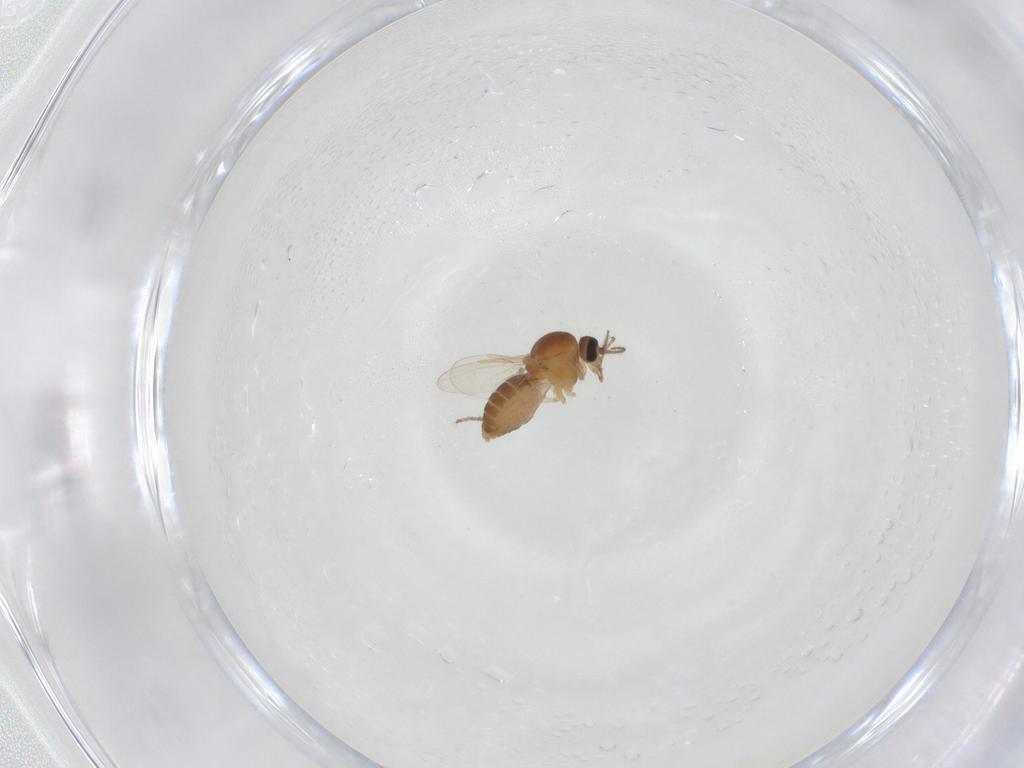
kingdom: Animalia
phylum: Arthropoda
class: Insecta
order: Diptera
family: Ceratopogonidae
